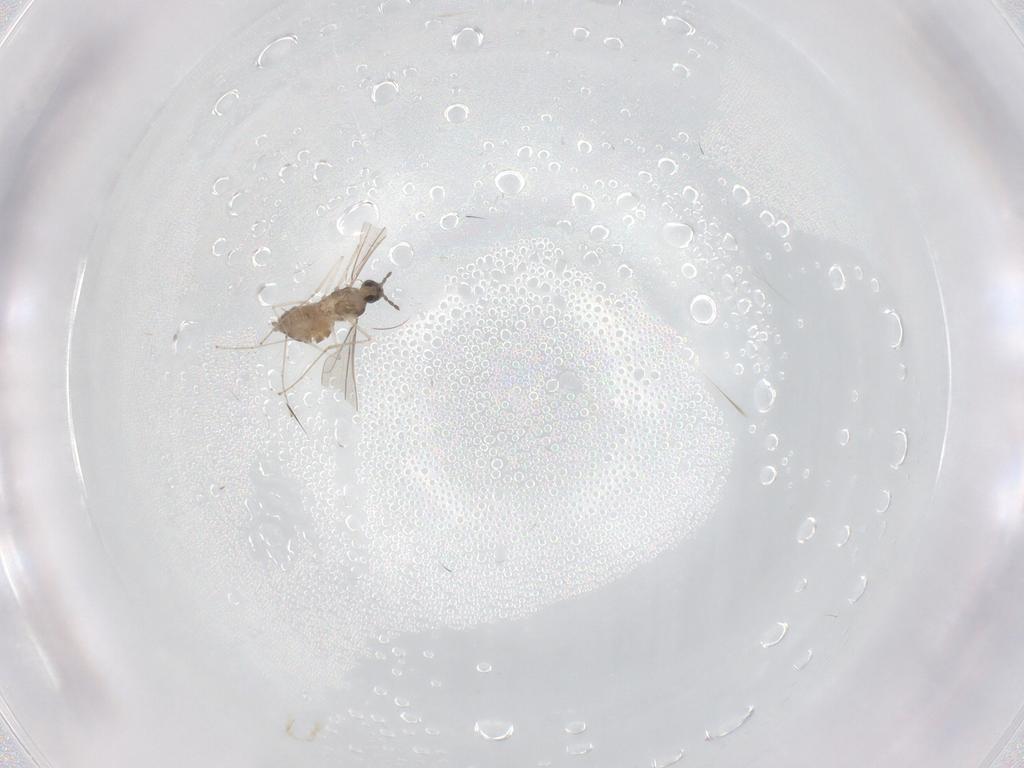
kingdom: Animalia
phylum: Arthropoda
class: Insecta
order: Diptera
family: Cecidomyiidae
